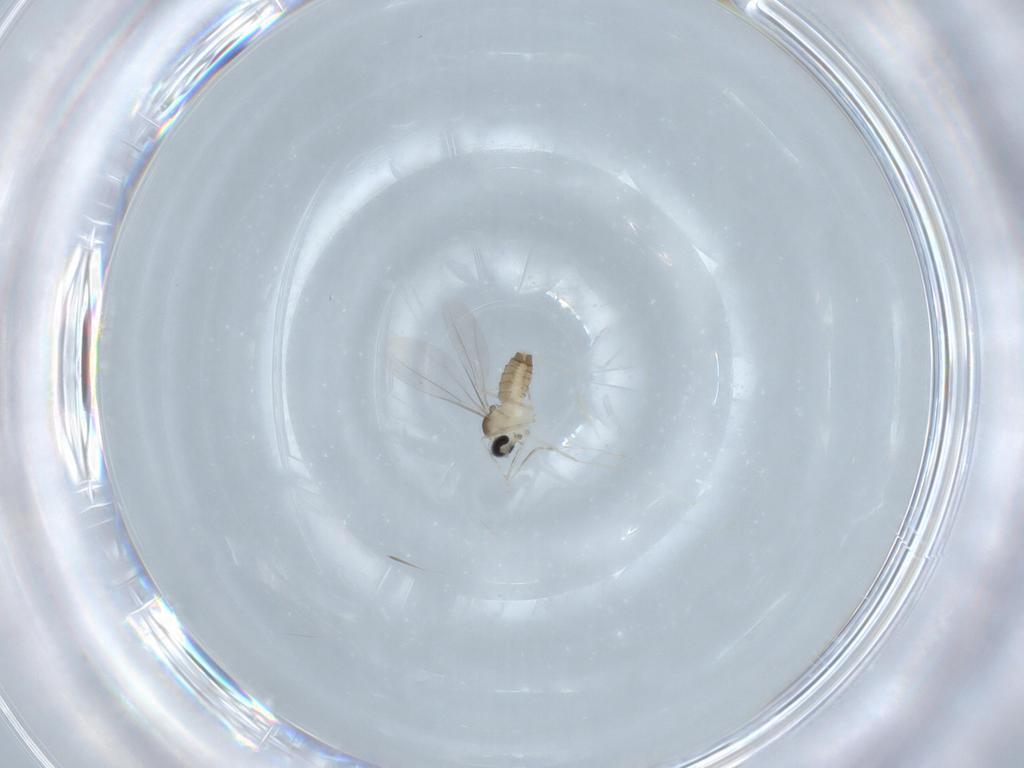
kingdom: Animalia
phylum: Arthropoda
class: Insecta
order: Diptera
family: Cecidomyiidae
